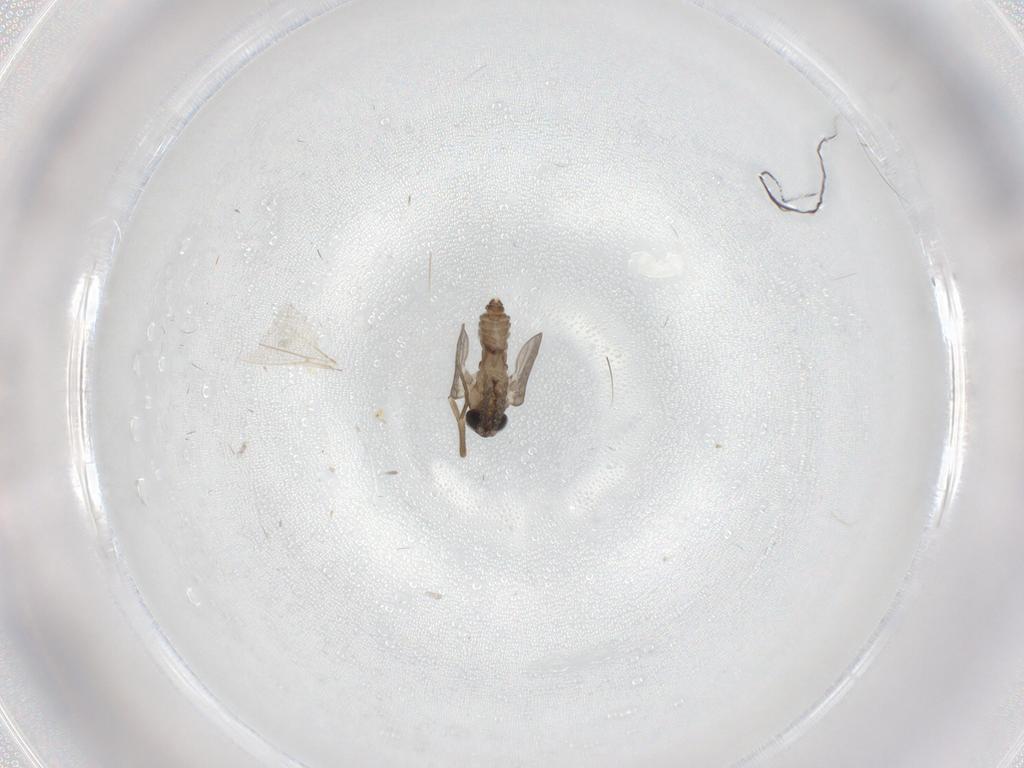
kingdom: Animalia
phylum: Arthropoda
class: Insecta
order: Diptera
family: Cecidomyiidae
